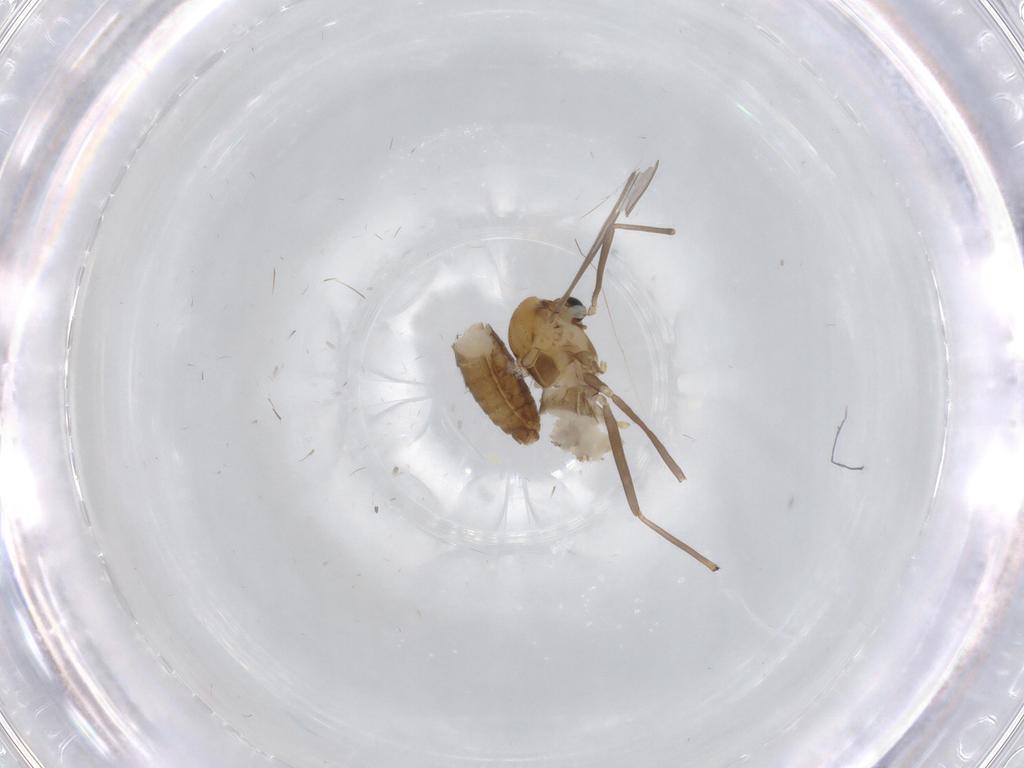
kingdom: Animalia
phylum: Arthropoda
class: Insecta
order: Diptera
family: Chironomidae
